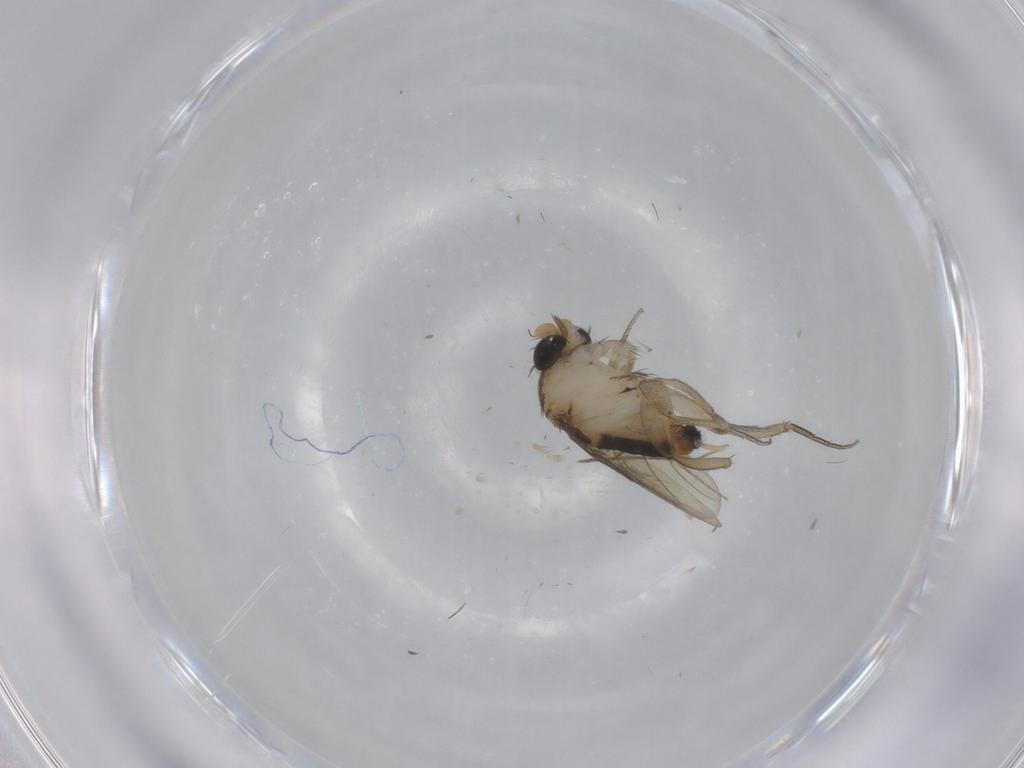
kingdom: Animalia
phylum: Arthropoda
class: Insecta
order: Diptera
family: Phoridae
